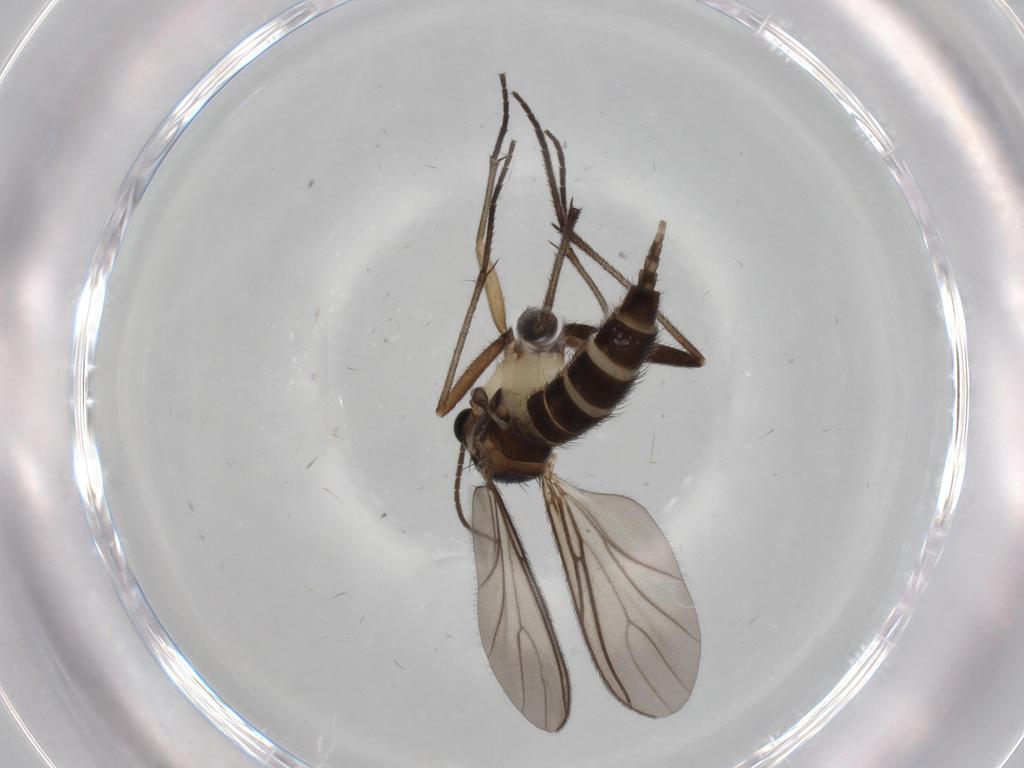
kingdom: Animalia
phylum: Arthropoda
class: Insecta
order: Diptera
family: Sciaridae
